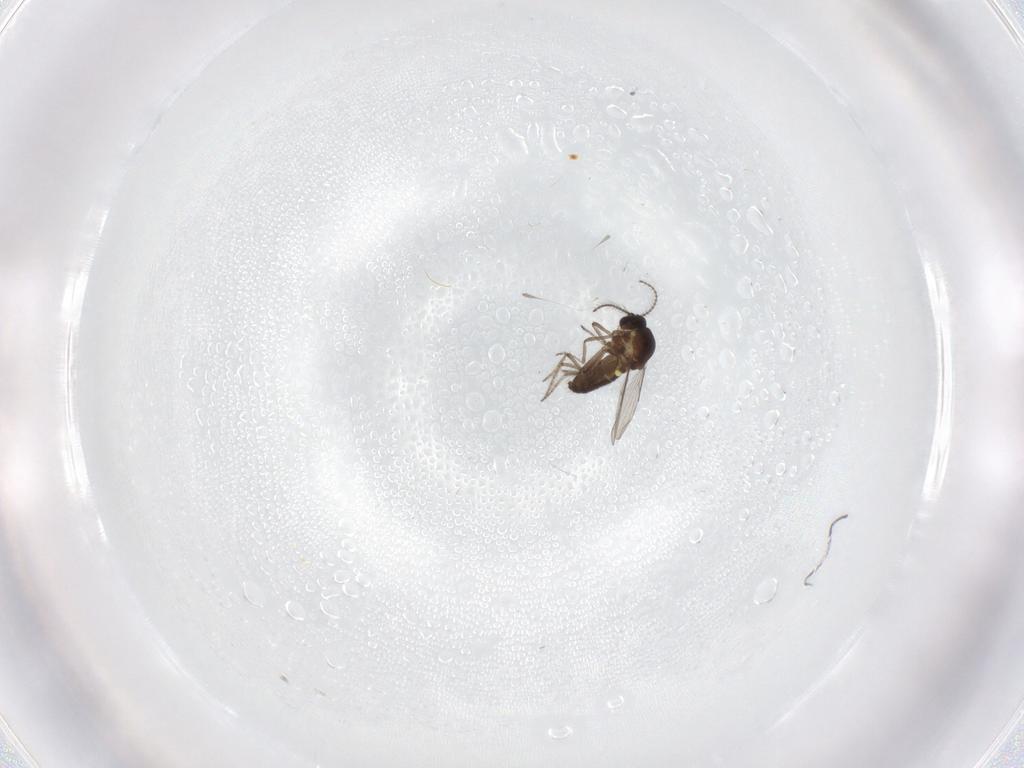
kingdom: Animalia
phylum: Arthropoda
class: Insecta
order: Diptera
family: Ceratopogonidae
